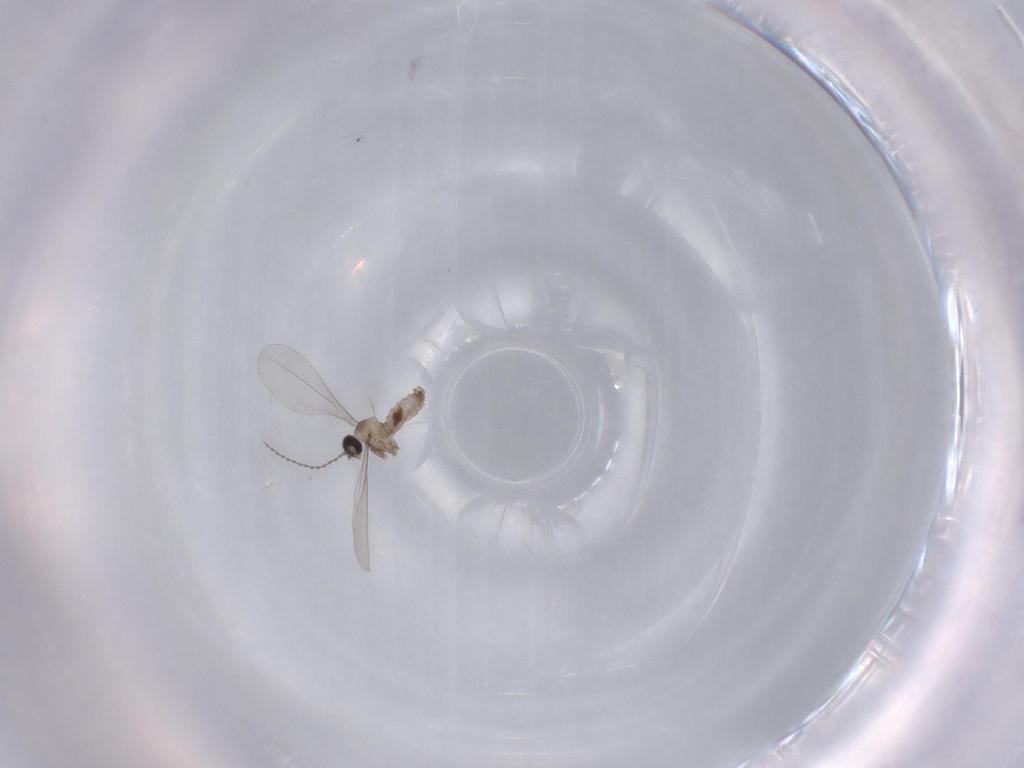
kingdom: Animalia
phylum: Arthropoda
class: Insecta
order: Diptera
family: Cecidomyiidae
